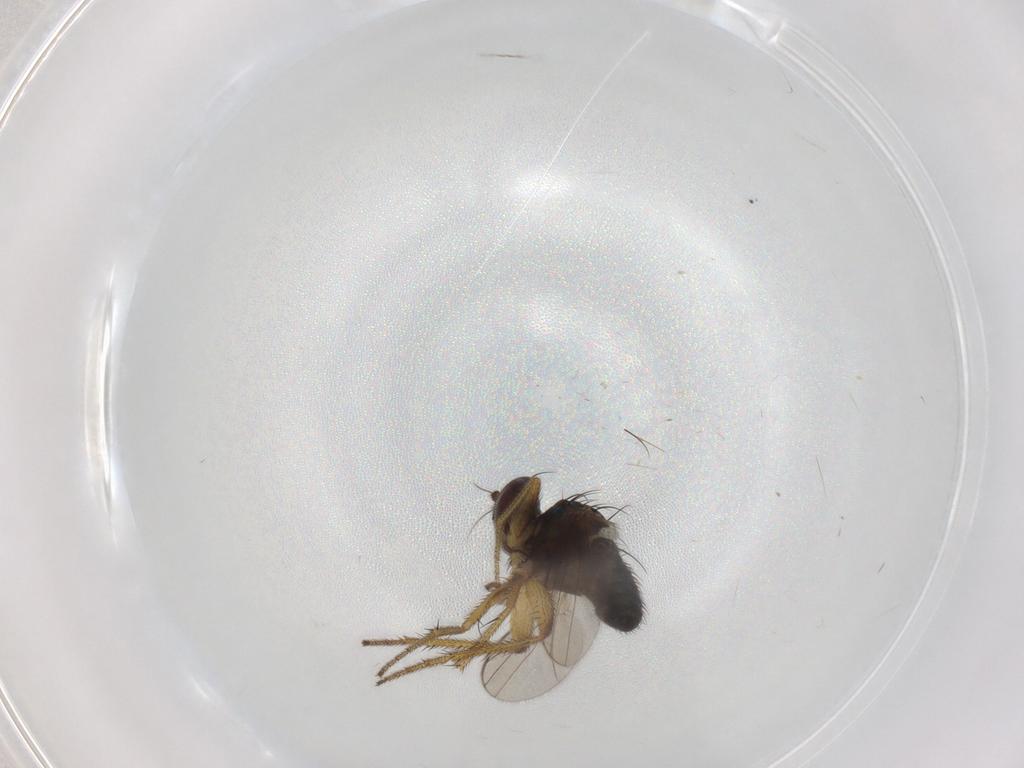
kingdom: Animalia
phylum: Arthropoda
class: Insecta
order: Diptera
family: Dolichopodidae
